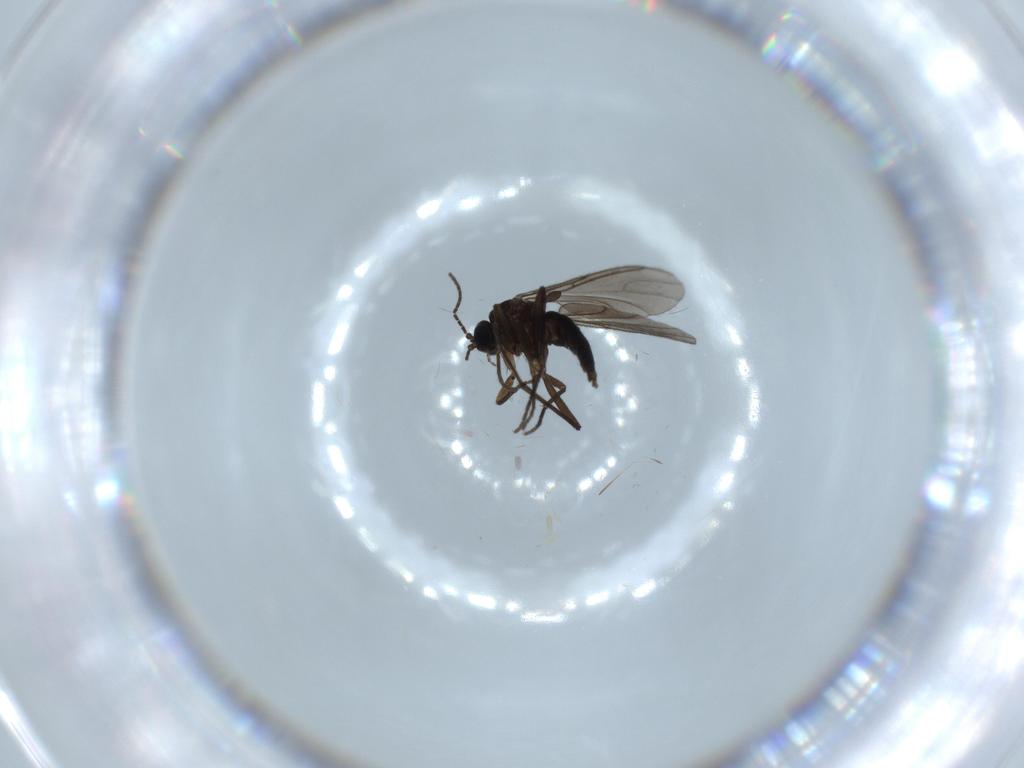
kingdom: Animalia
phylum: Arthropoda
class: Insecta
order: Diptera
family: Sciaridae
